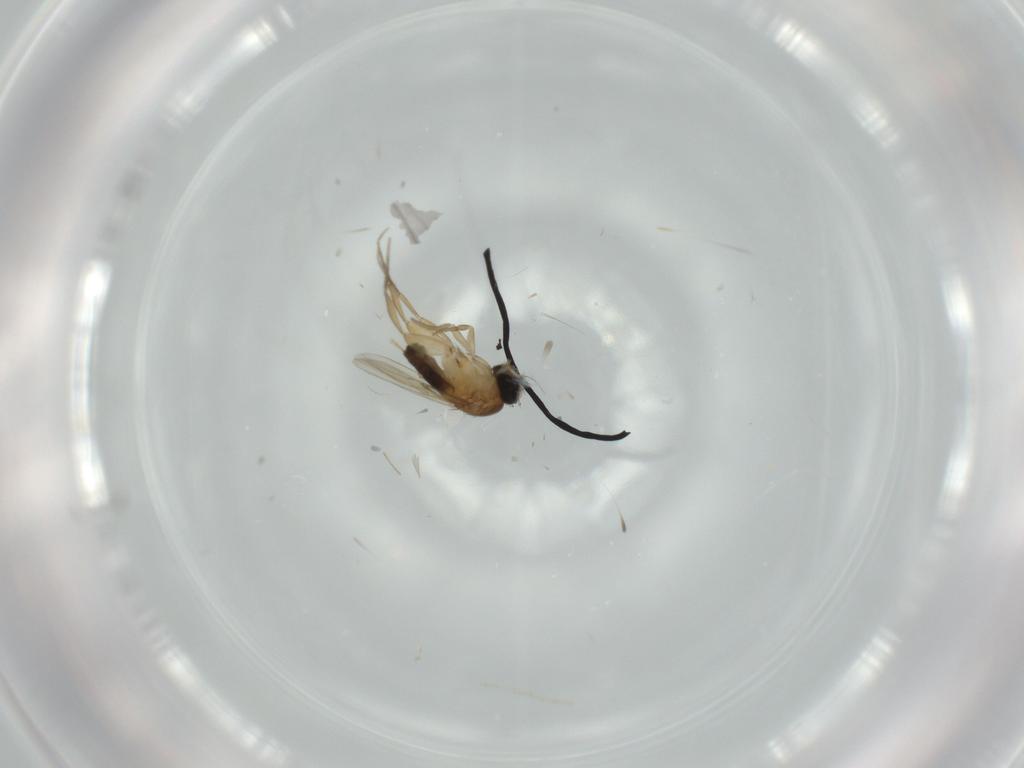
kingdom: Animalia
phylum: Arthropoda
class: Insecta
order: Diptera
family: Phoridae
